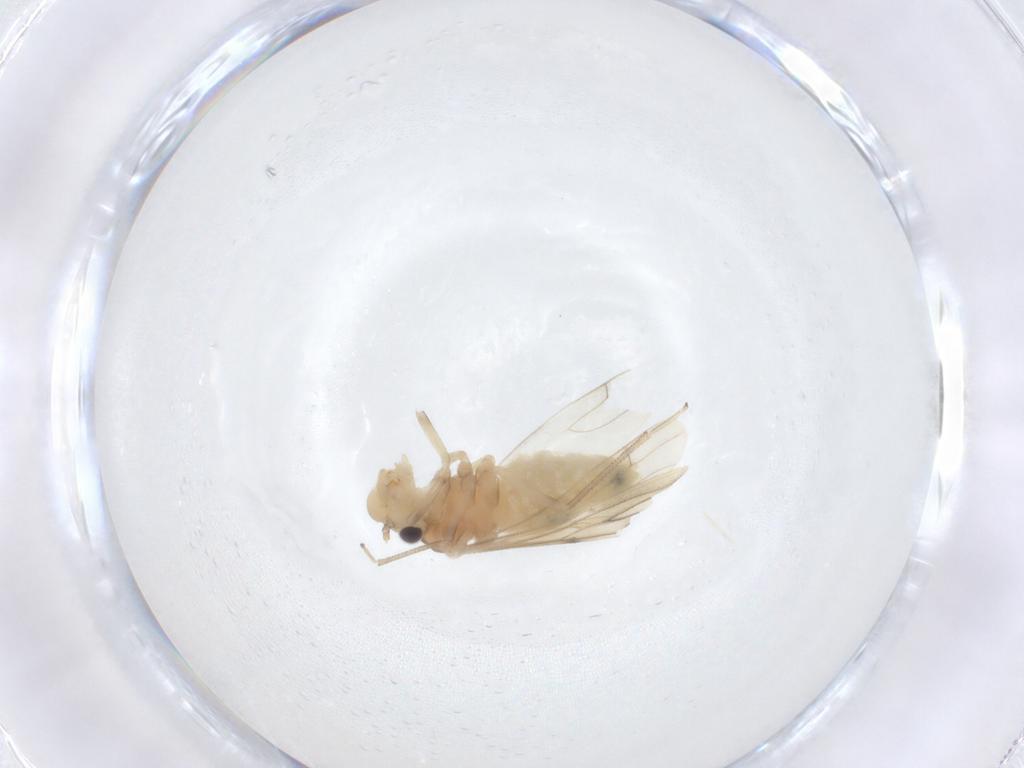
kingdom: Animalia
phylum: Arthropoda
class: Insecta
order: Psocodea
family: Caeciliusidae
